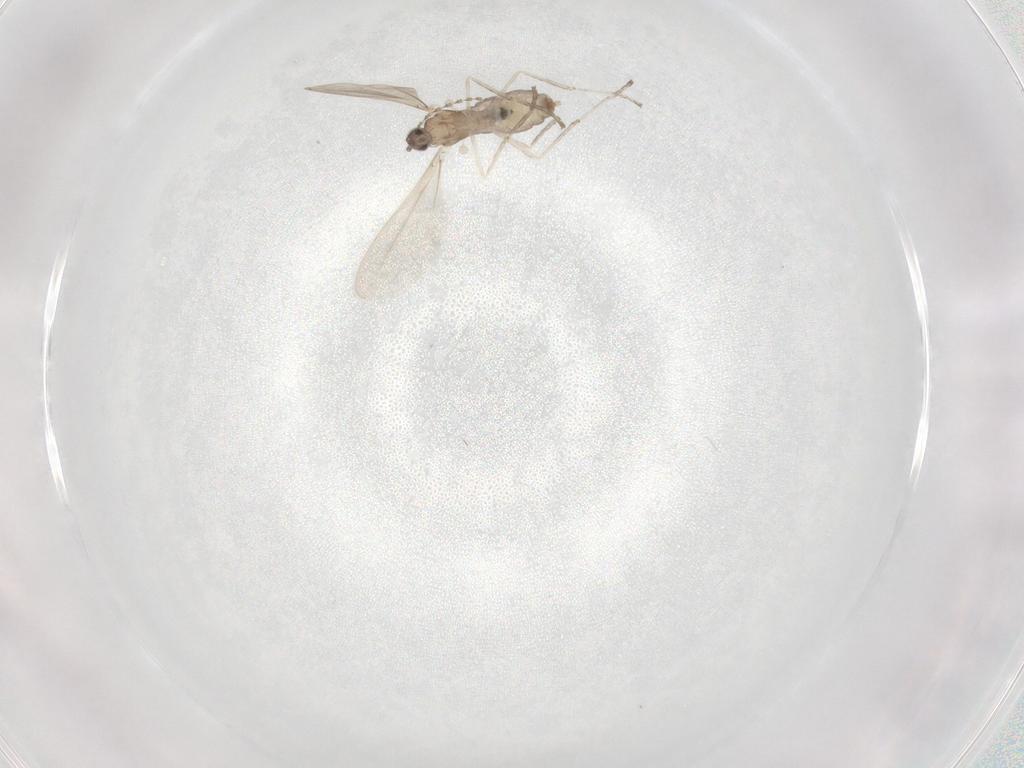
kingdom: Animalia
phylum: Arthropoda
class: Insecta
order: Diptera
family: Cecidomyiidae
